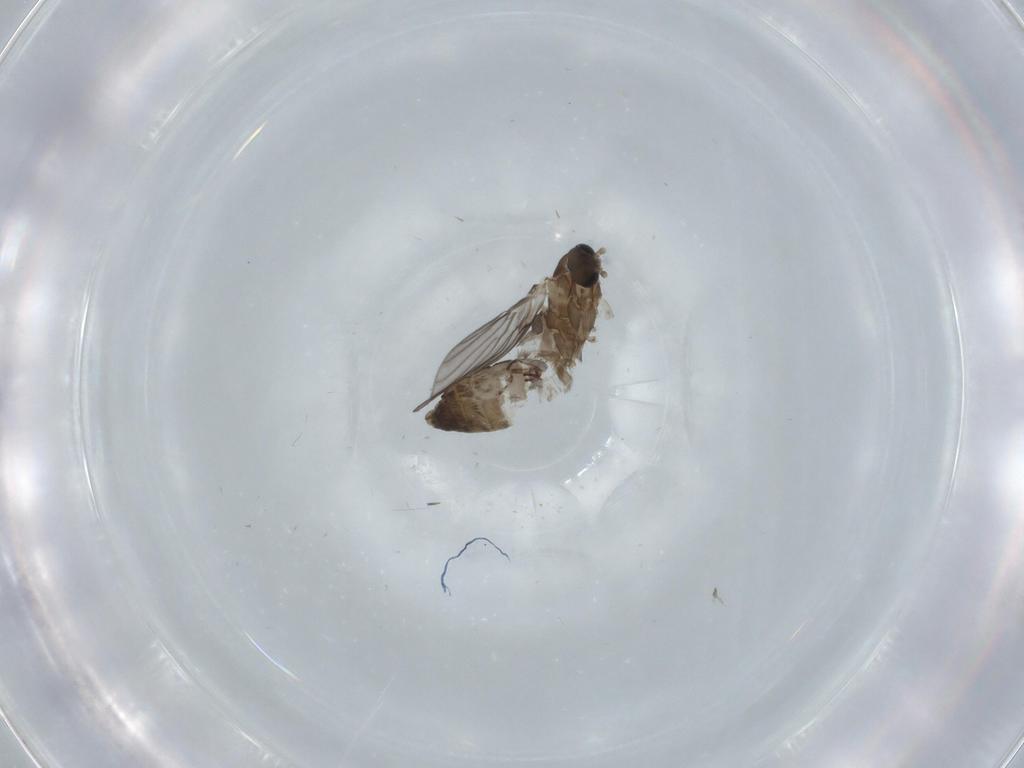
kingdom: Animalia
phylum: Arthropoda
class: Insecta
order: Diptera
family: Psychodidae
